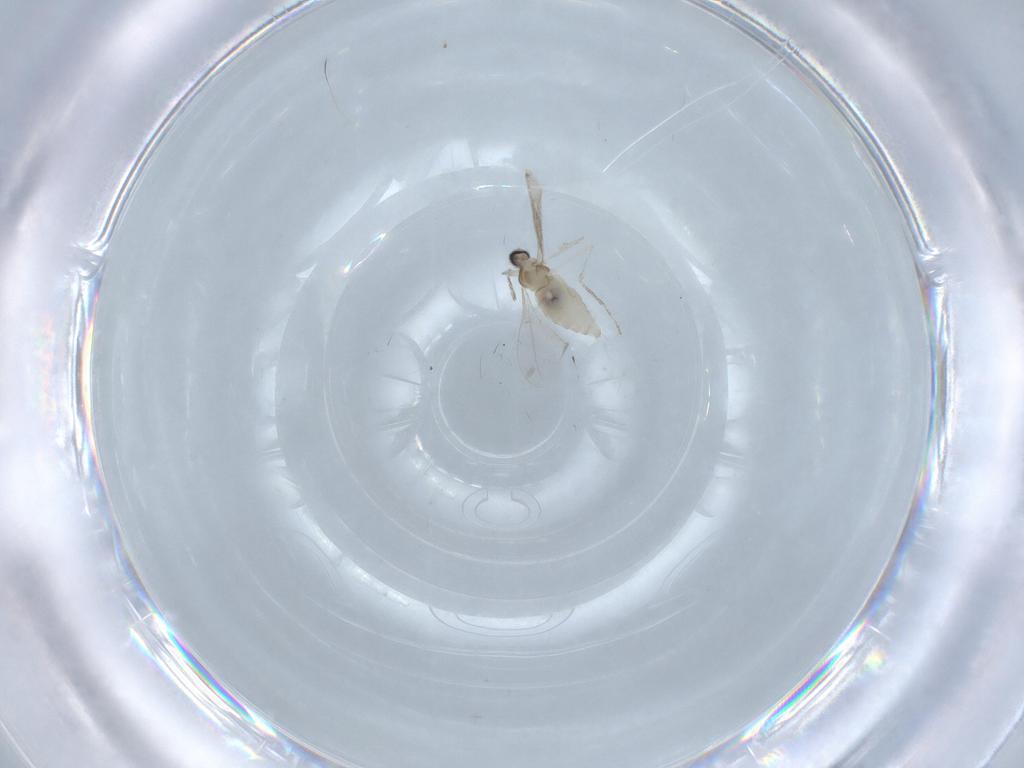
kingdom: Animalia
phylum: Arthropoda
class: Insecta
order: Diptera
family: Cecidomyiidae
